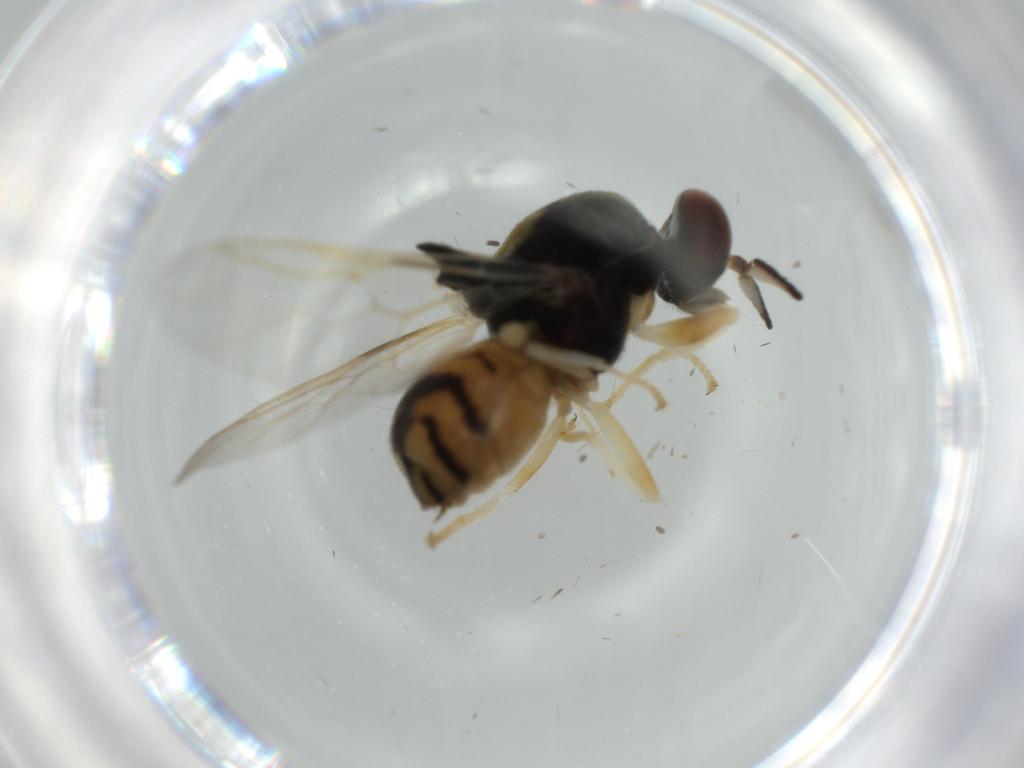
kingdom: Animalia
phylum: Arthropoda
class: Insecta
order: Diptera
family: Stratiomyidae
